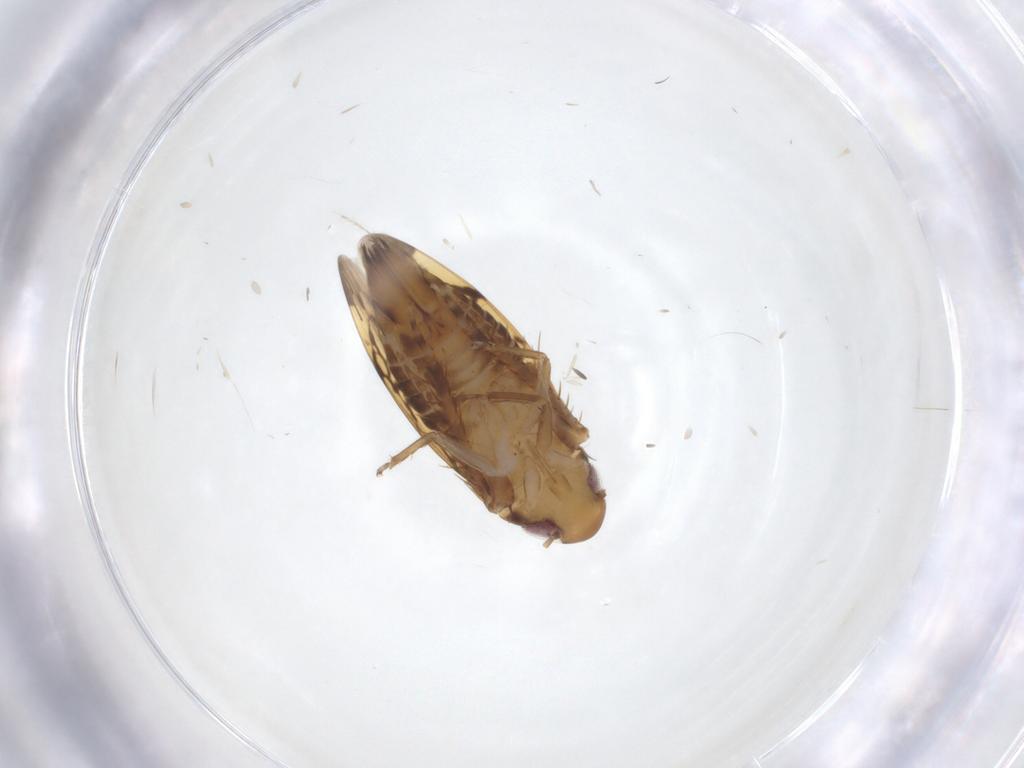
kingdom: Animalia
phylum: Arthropoda
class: Insecta
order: Hemiptera
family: Cicadellidae
